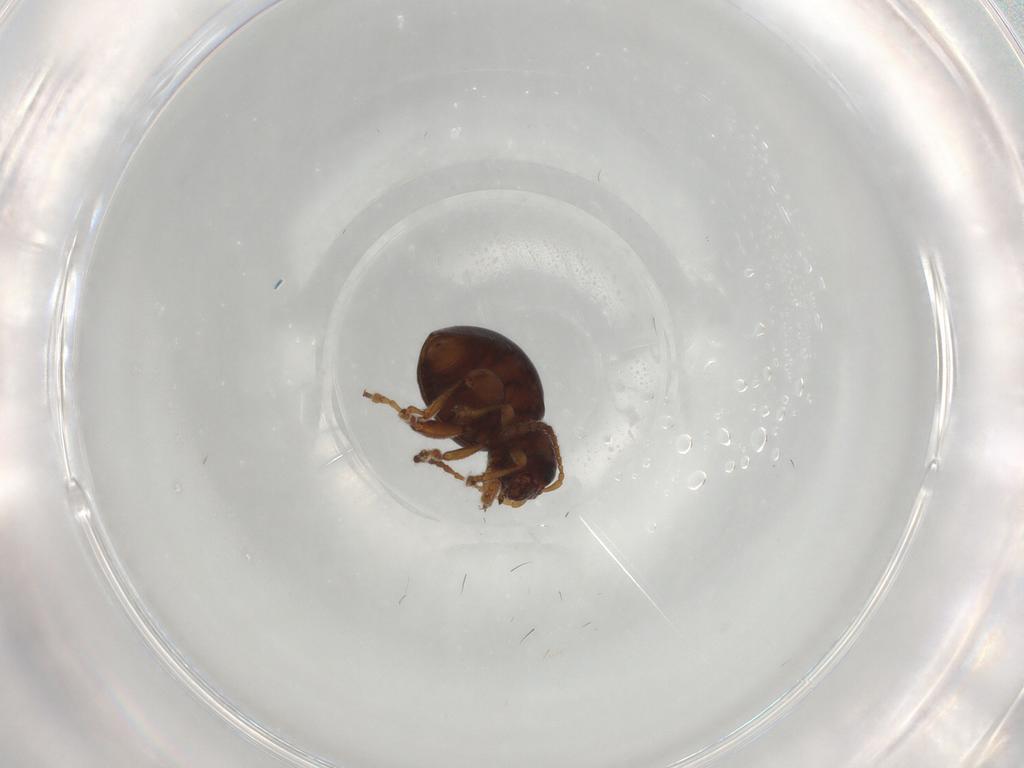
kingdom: Animalia
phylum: Arthropoda
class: Insecta
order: Coleoptera
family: Chrysomelidae
